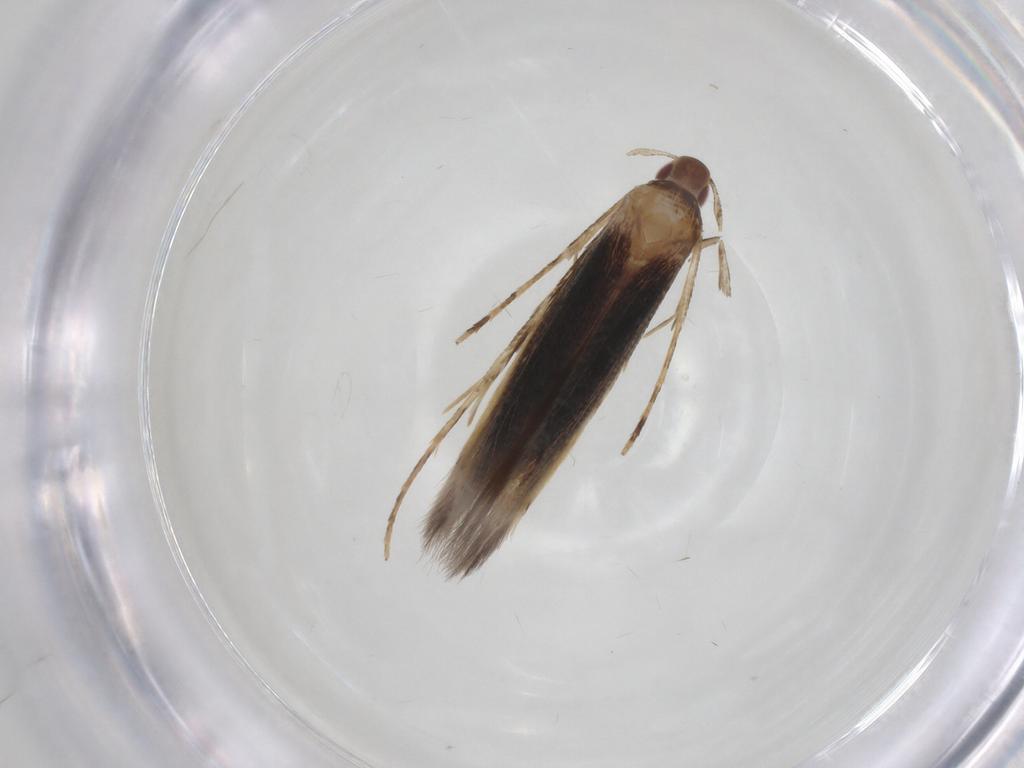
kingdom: Animalia
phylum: Arthropoda
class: Insecta
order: Lepidoptera
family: Cosmopterigidae
